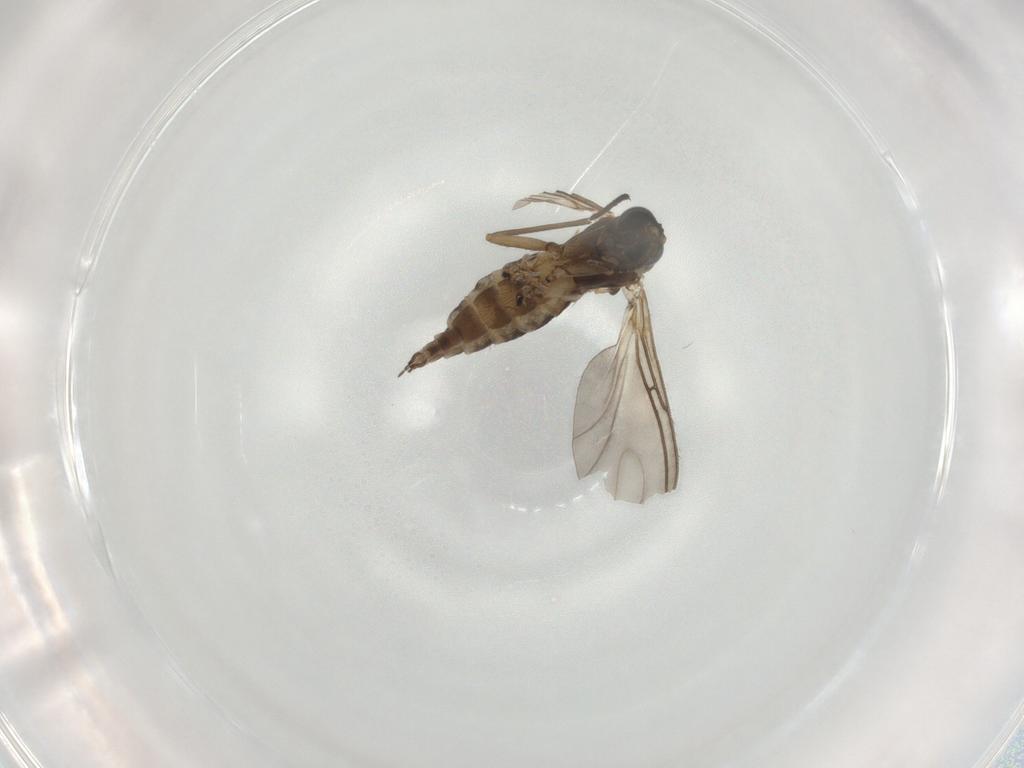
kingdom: Animalia
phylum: Arthropoda
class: Insecta
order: Diptera
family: Sciaridae
